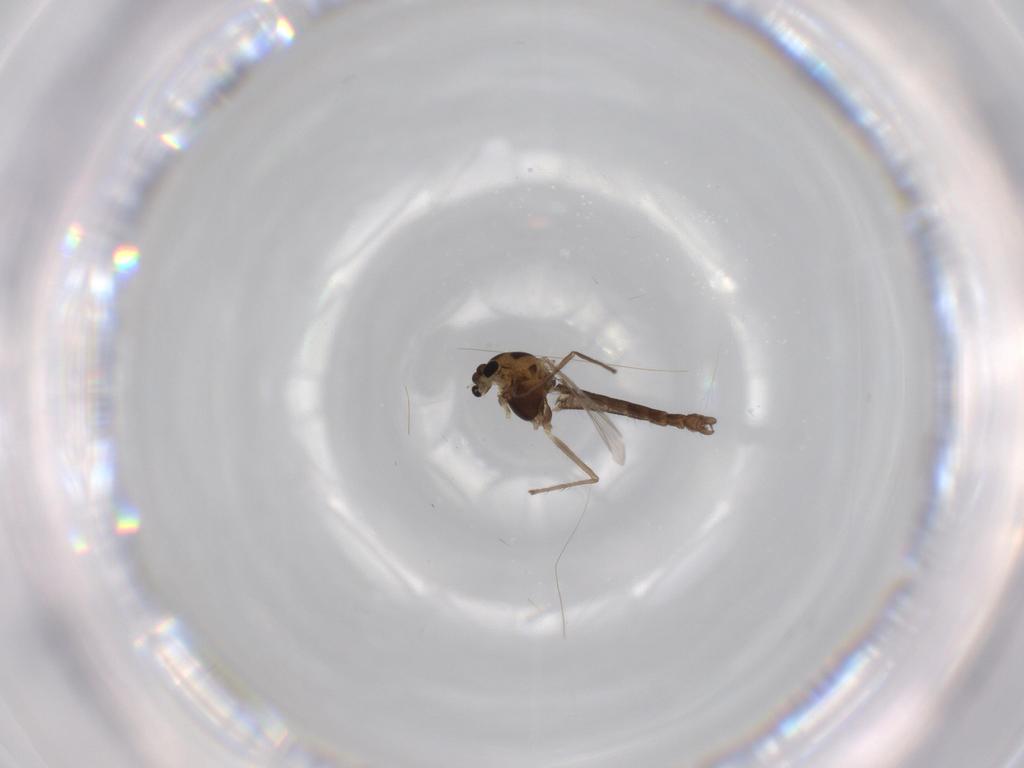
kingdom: Animalia
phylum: Arthropoda
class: Insecta
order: Diptera
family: Chironomidae
